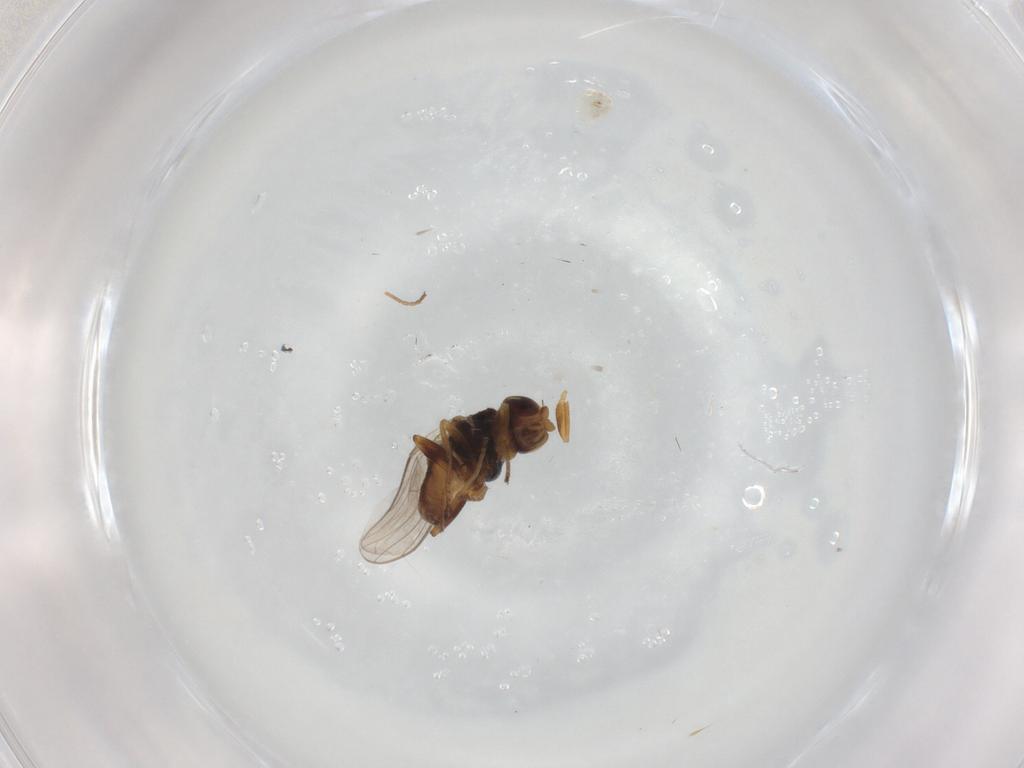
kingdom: Animalia
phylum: Arthropoda
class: Insecta
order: Diptera
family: Chloropidae
